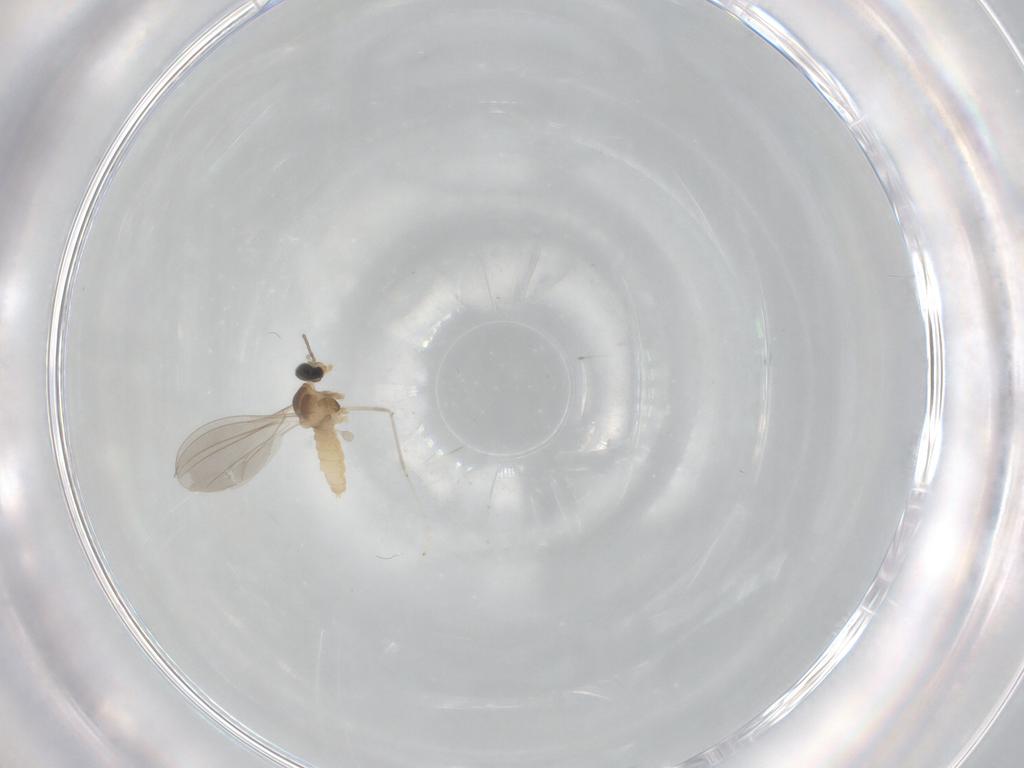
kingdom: Animalia
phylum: Arthropoda
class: Insecta
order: Diptera
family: Cecidomyiidae
